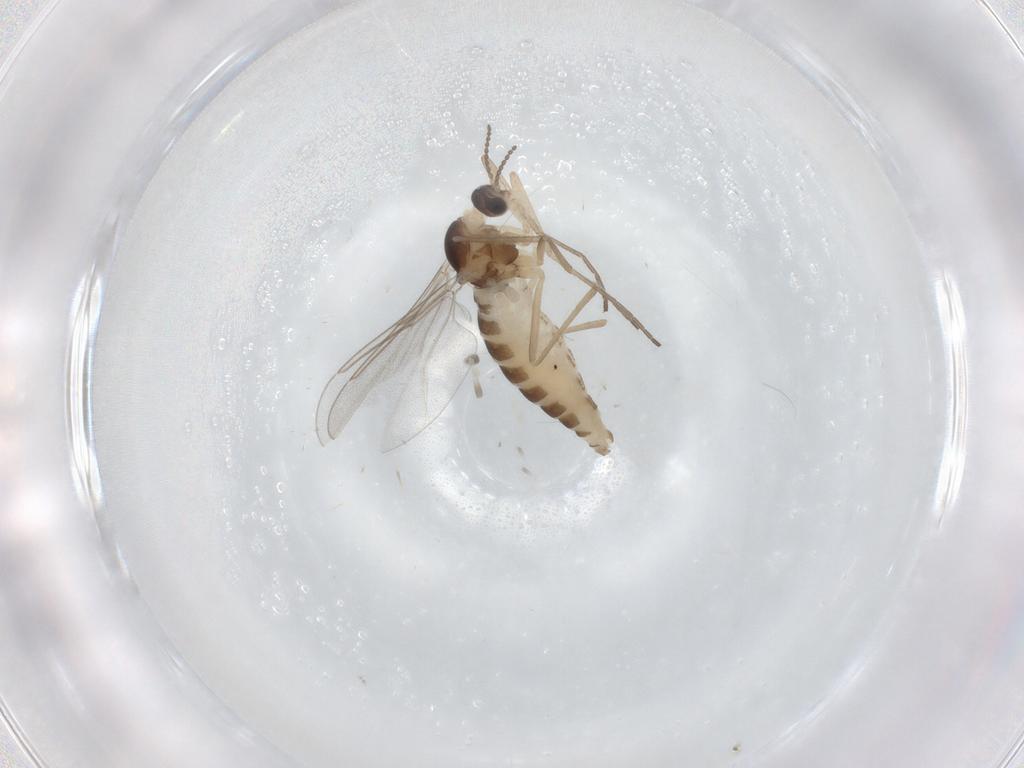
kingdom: Animalia
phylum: Arthropoda
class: Insecta
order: Diptera
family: Cecidomyiidae
